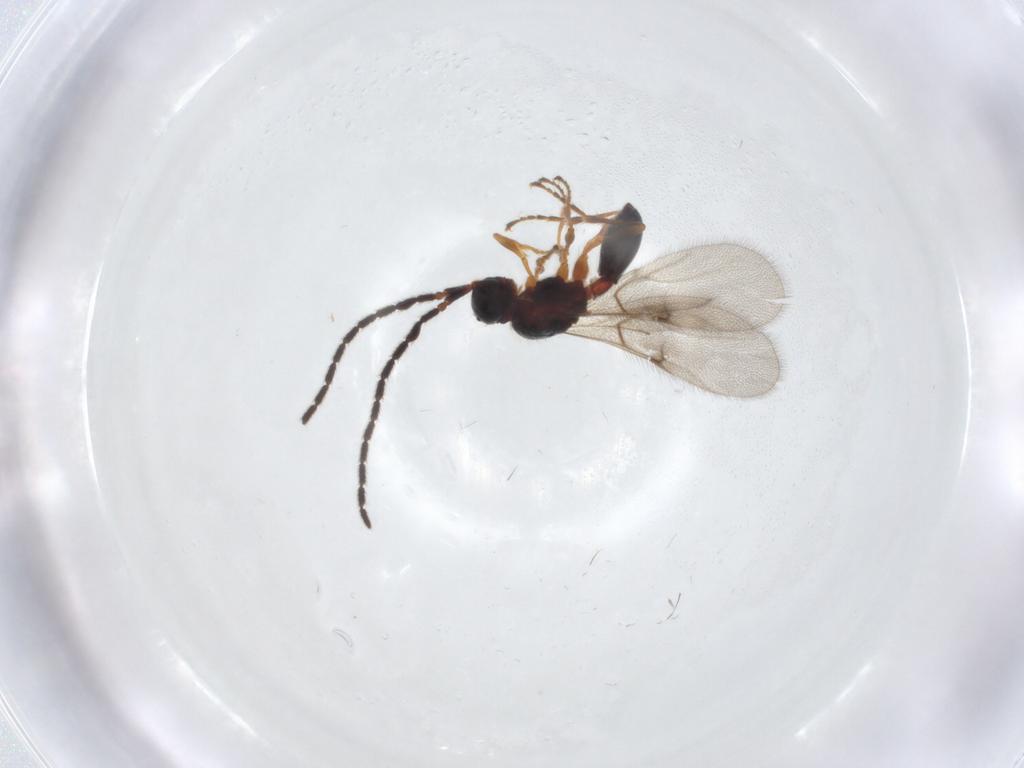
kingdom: Animalia
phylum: Arthropoda
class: Insecta
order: Hymenoptera
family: Diapriidae
